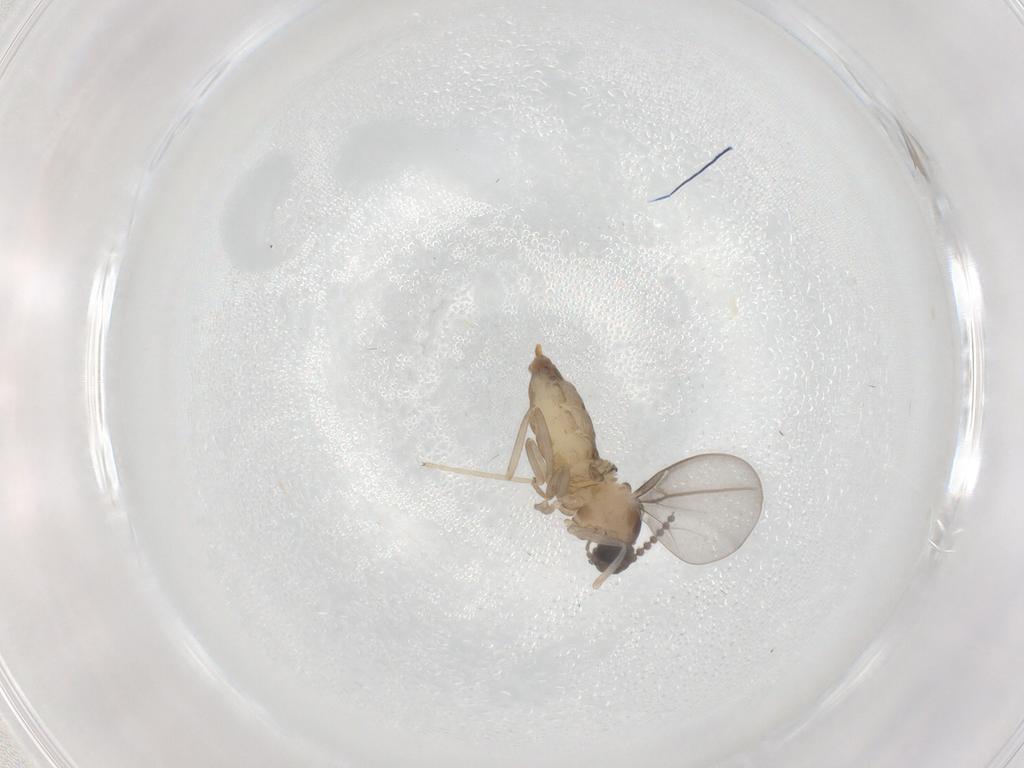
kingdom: Animalia
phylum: Arthropoda
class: Insecta
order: Diptera
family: Cecidomyiidae
